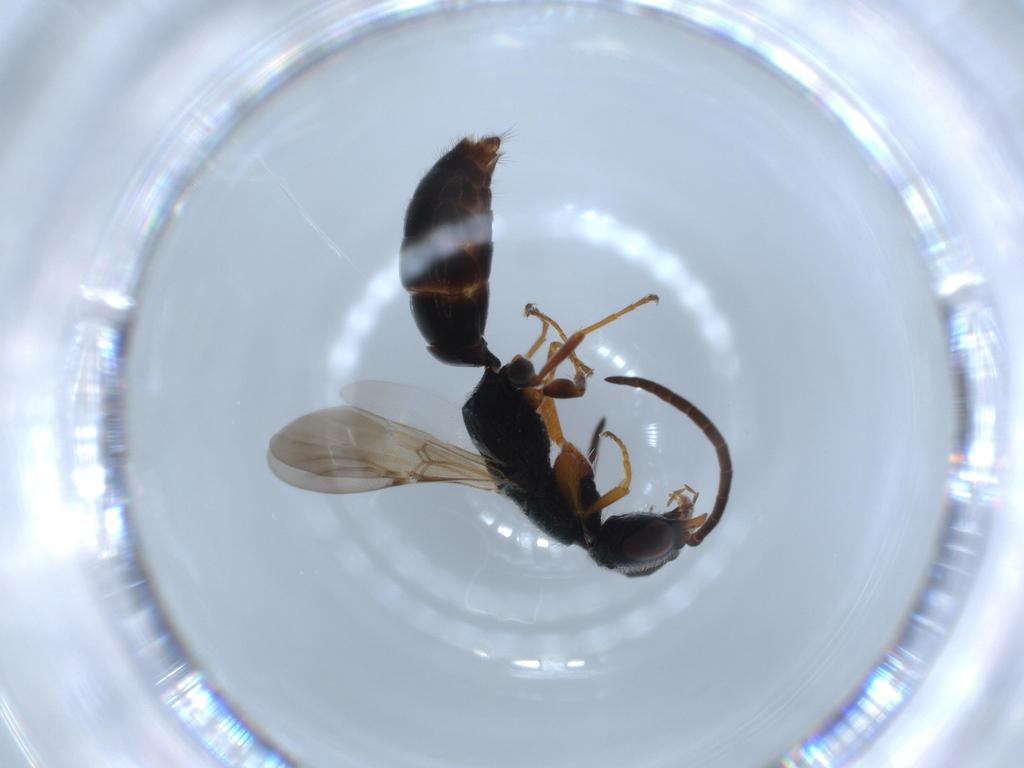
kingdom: Animalia
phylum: Arthropoda
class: Insecta
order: Hymenoptera
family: Bethylidae
